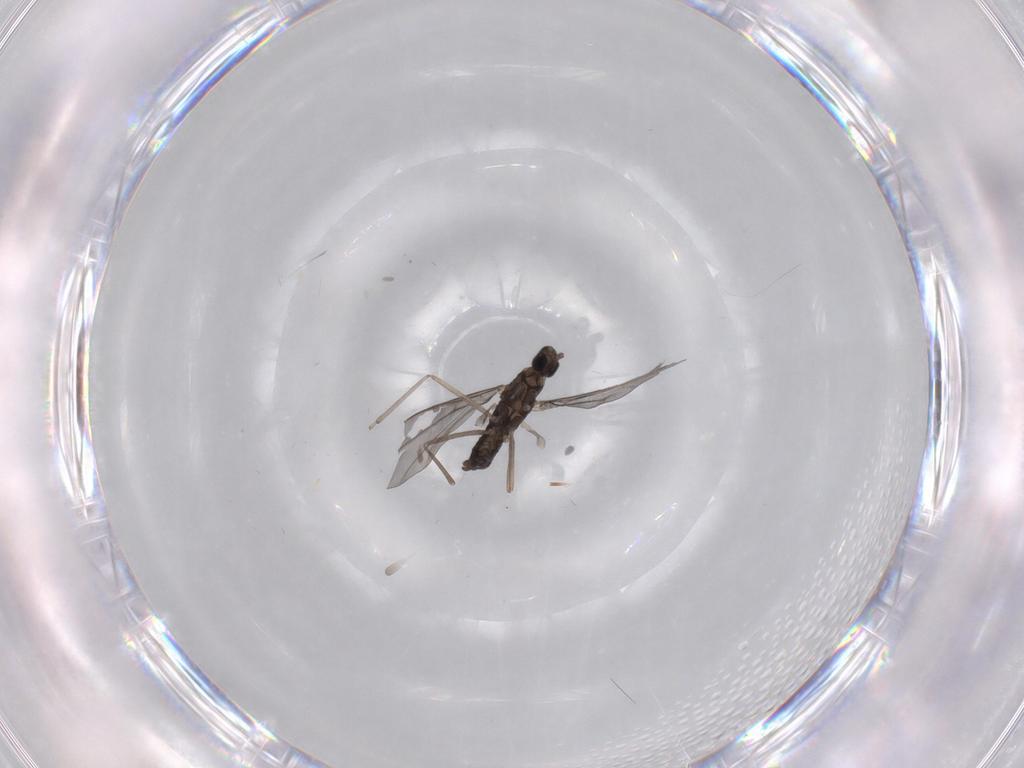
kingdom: Animalia
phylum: Arthropoda
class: Insecta
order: Diptera
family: Cecidomyiidae
